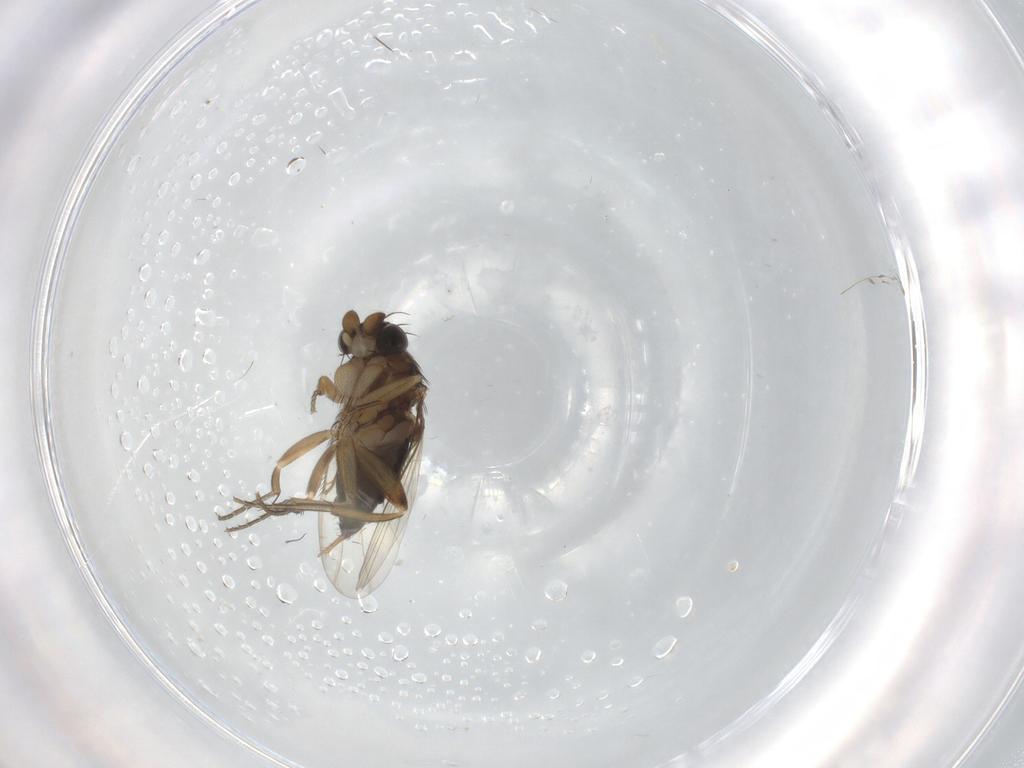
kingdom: Animalia
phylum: Arthropoda
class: Insecta
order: Diptera
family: Phoridae
